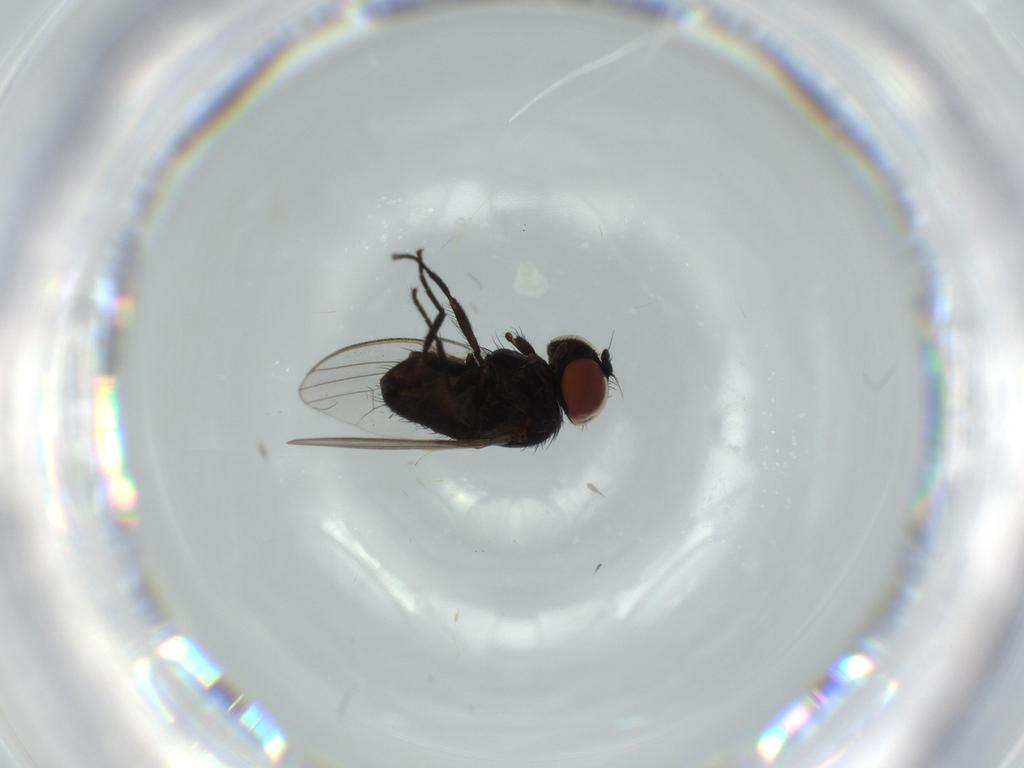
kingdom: Animalia
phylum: Arthropoda
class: Insecta
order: Diptera
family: Milichiidae
